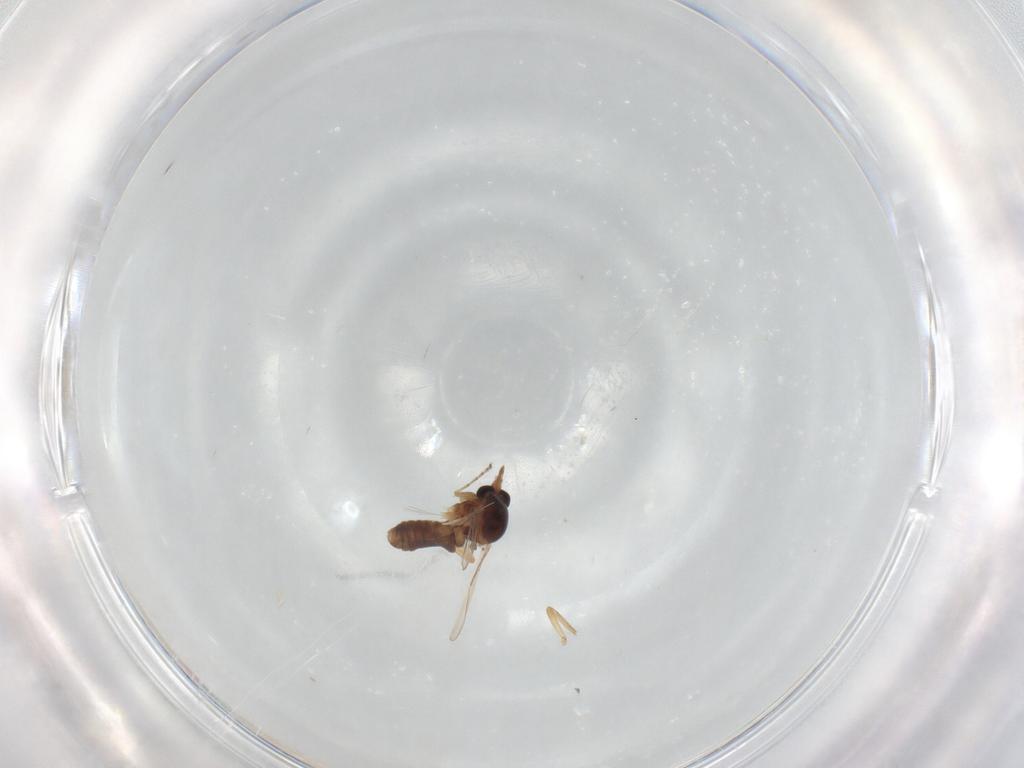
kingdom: Animalia
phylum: Arthropoda
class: Insecta
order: Diptera
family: Ceratopogonidae
